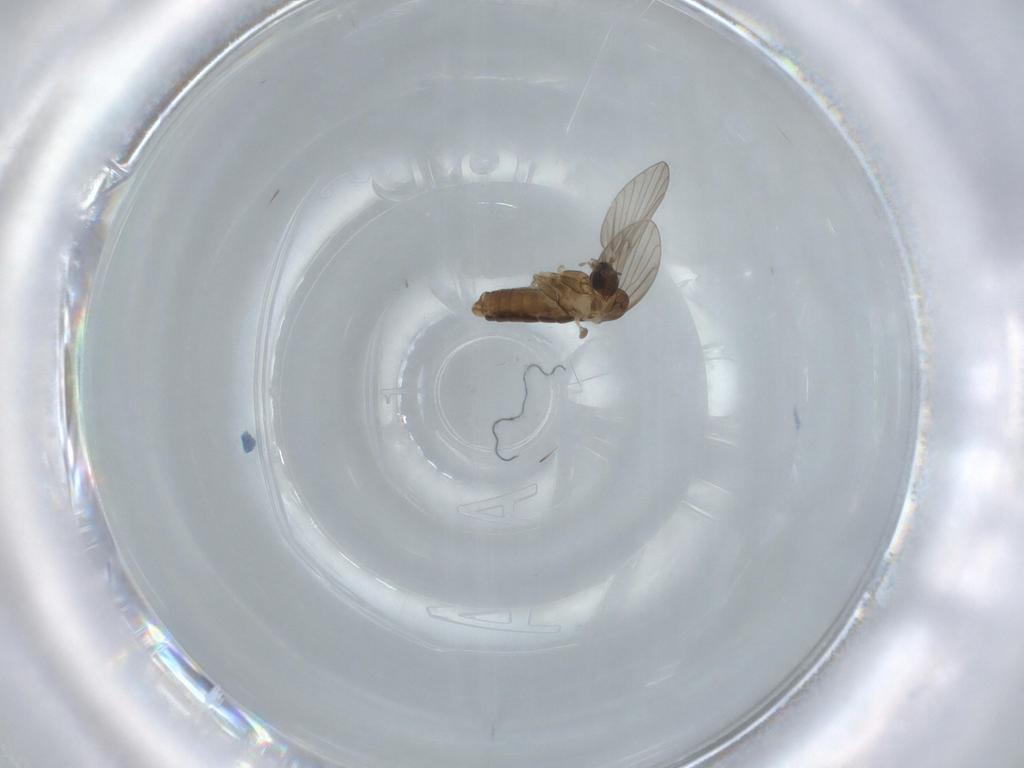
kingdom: Animalia
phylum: Arthropoda
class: Insecta
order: Diptera
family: Psychodidae
